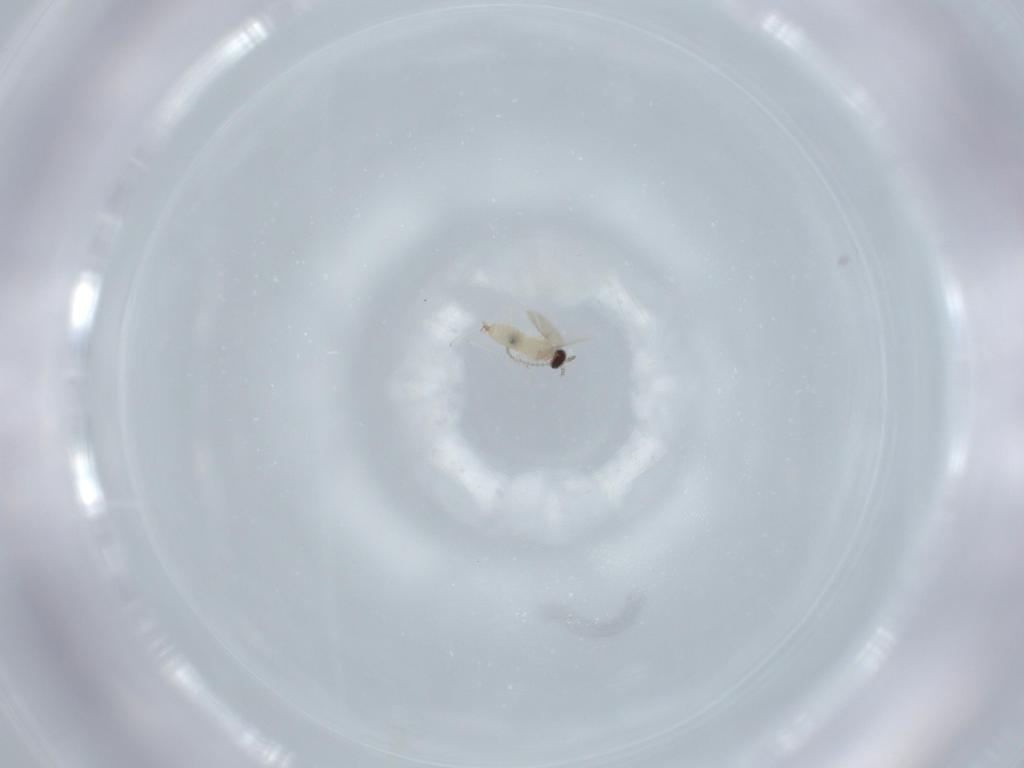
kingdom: Animalia
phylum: Arthropoda
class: Insecta
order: Diptera
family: Cecidomyiidae
